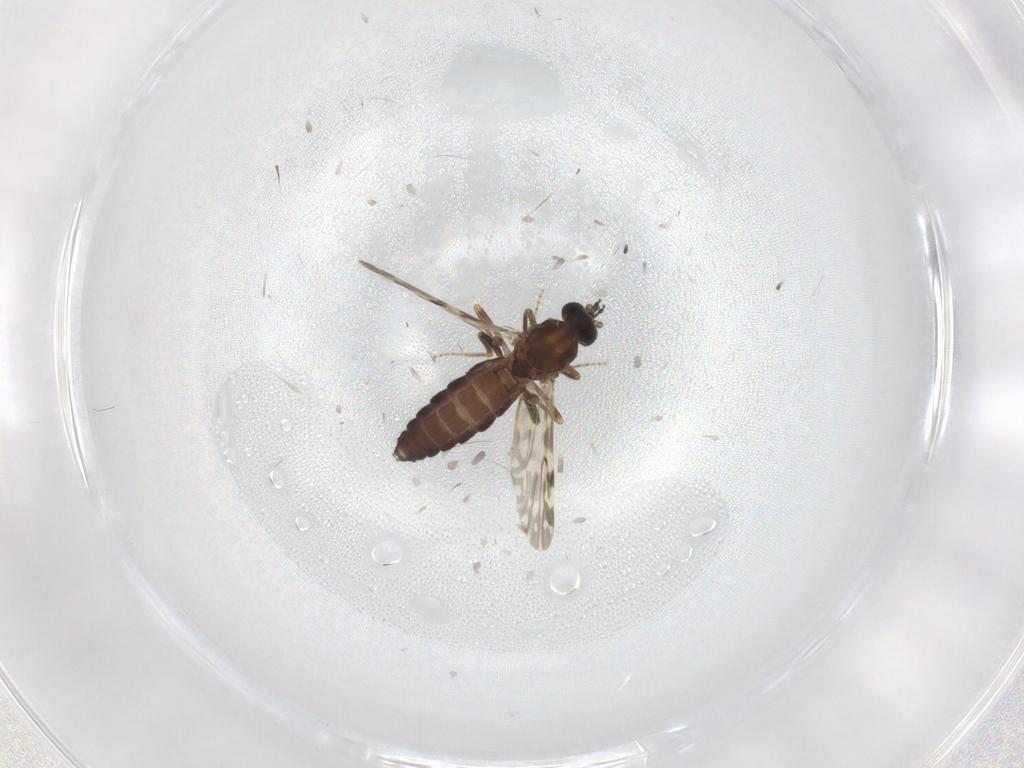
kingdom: Animalia
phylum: Arthropoda
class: Insecta
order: Diptera
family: Ceratopogonidae
